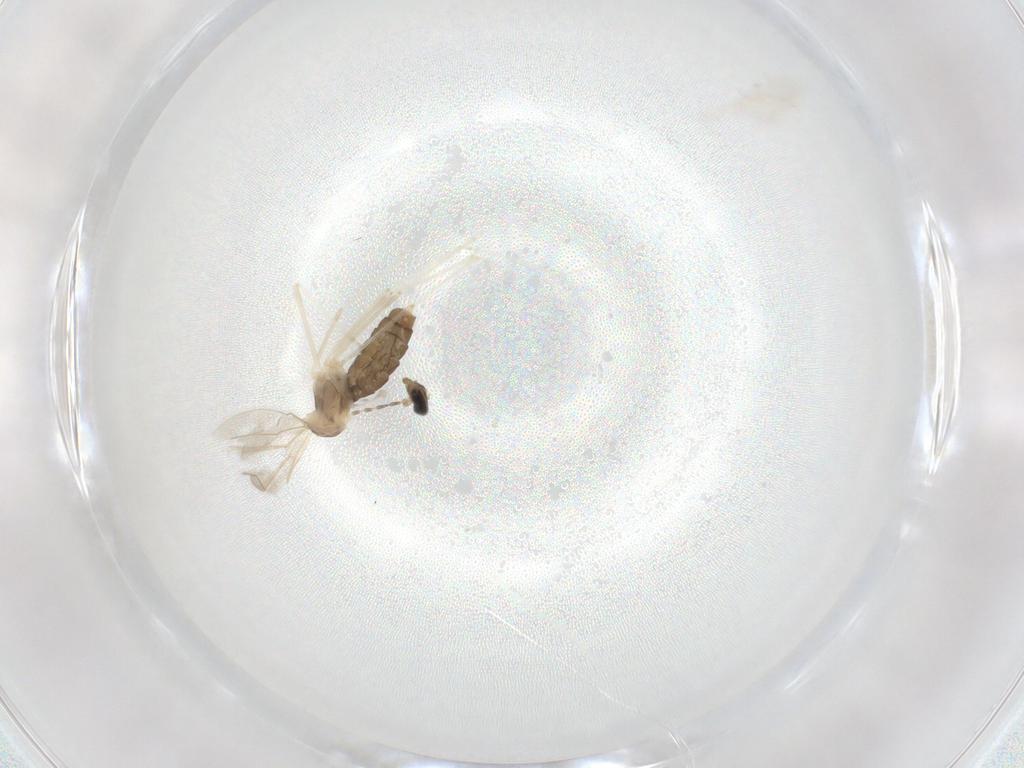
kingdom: Animalia
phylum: Arthropoda
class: Insecta
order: Diptera
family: Cecidomyiidae
